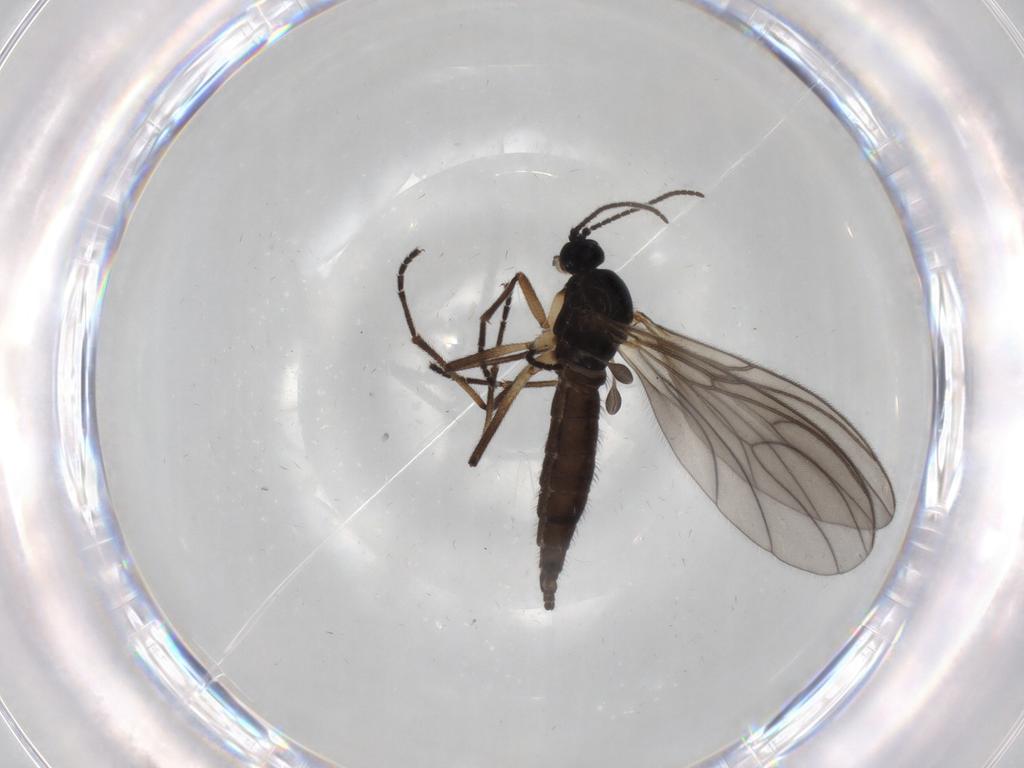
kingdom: Animalia
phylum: Arthropoda
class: Insecta
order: Diptera
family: Sciaridae
